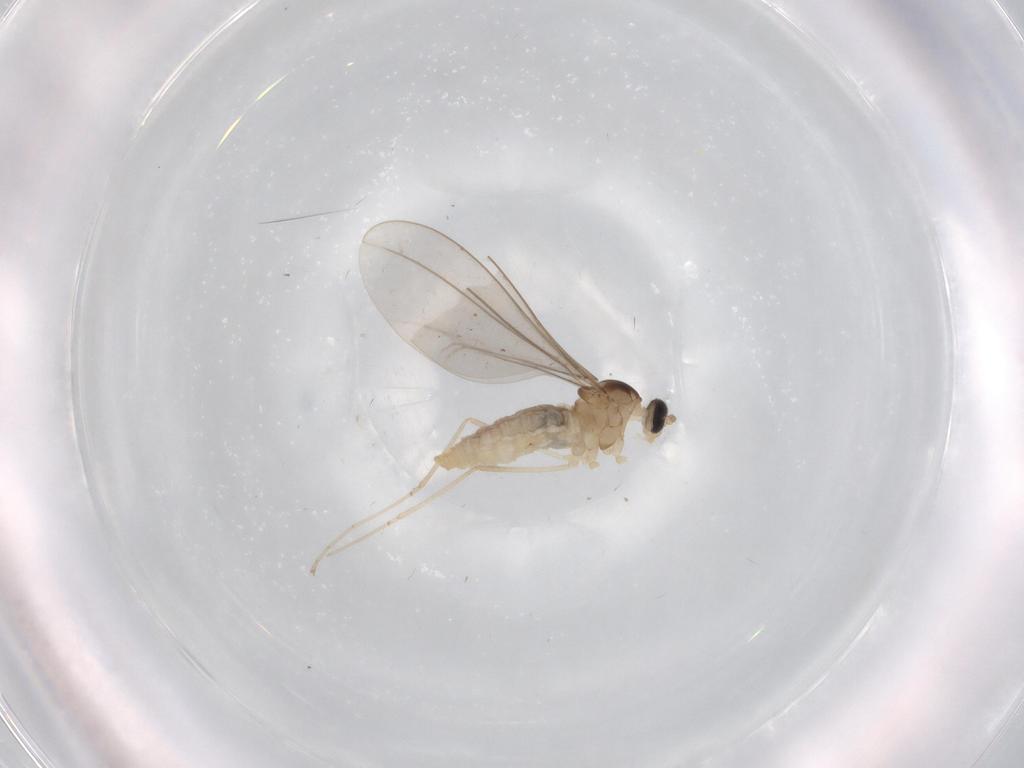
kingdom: Animalia
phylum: Arthropoda
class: Insecta
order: Diptera
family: Cecidomyiidae
